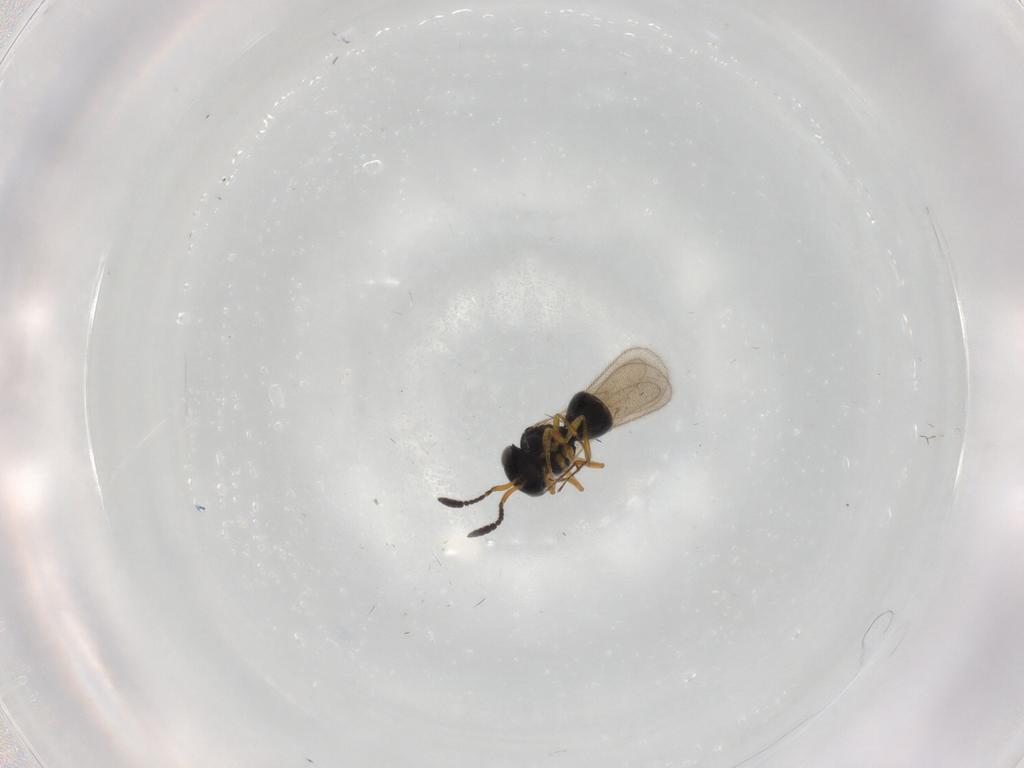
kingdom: Animalia
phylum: Arthropoda
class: Insecta
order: Hymenoptera
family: Scelionidae
